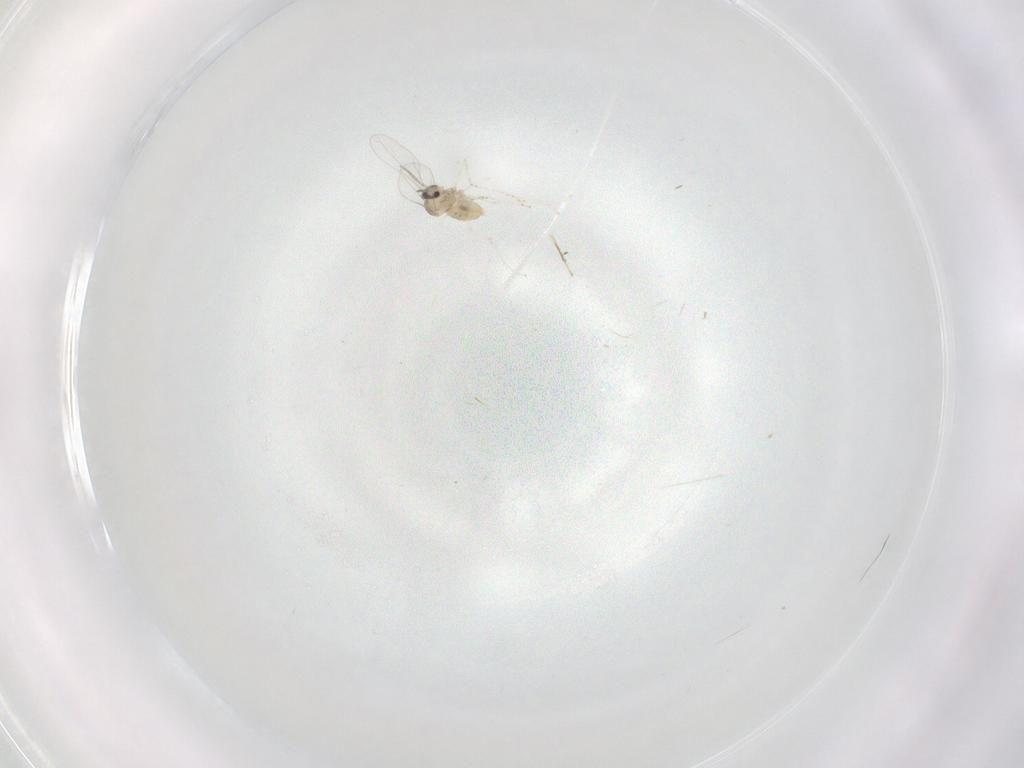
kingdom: Animalia
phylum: Arthropoda
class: Insecta
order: Diptera
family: Cecidomyiidae
